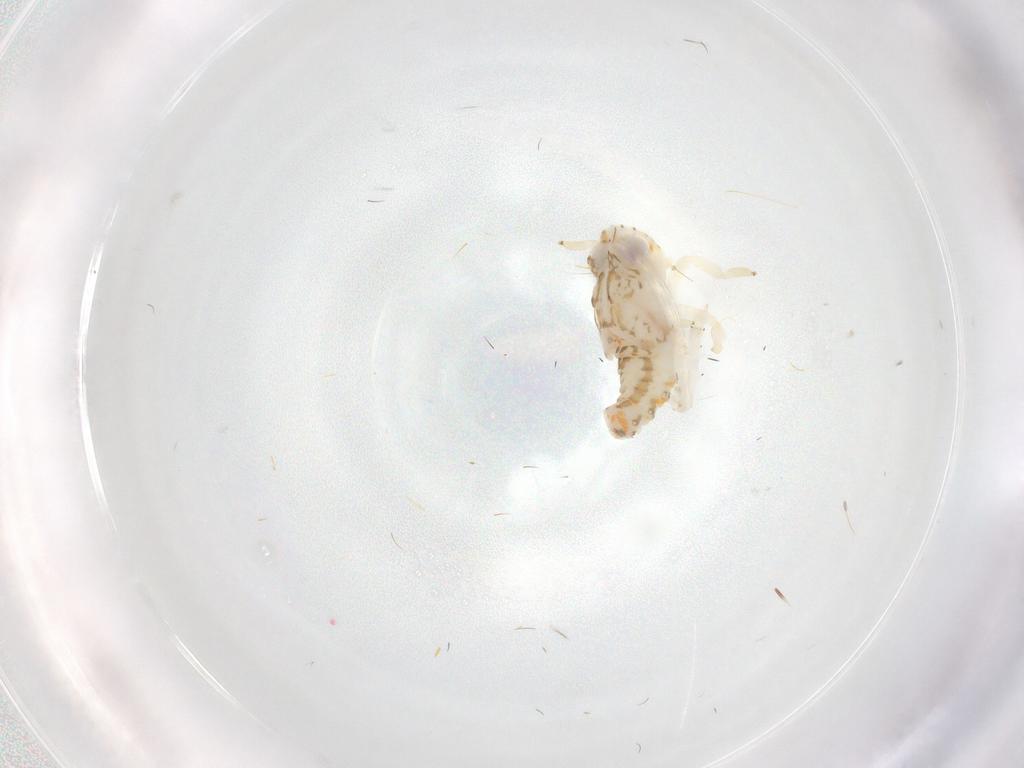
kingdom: Animalia
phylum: Arthropoda
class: Insecta
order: Hemiptera
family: Nogodinidae
